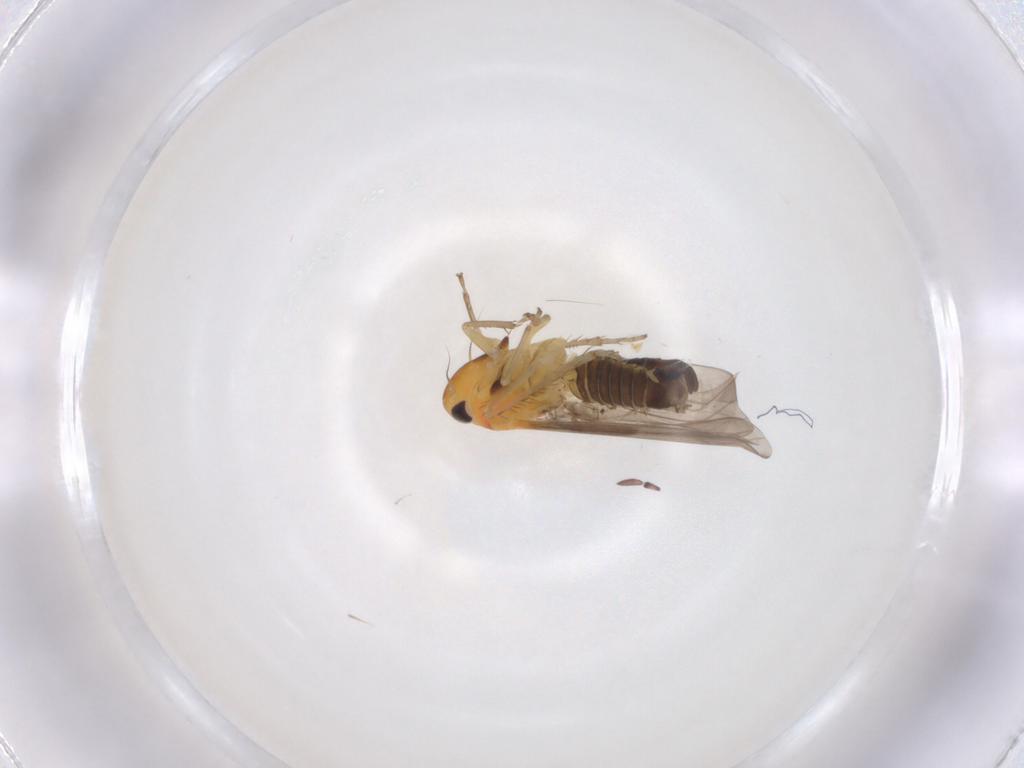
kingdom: Animalia
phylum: Arthropoda
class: Insecta
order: Hemiptera
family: Cicadellidae
